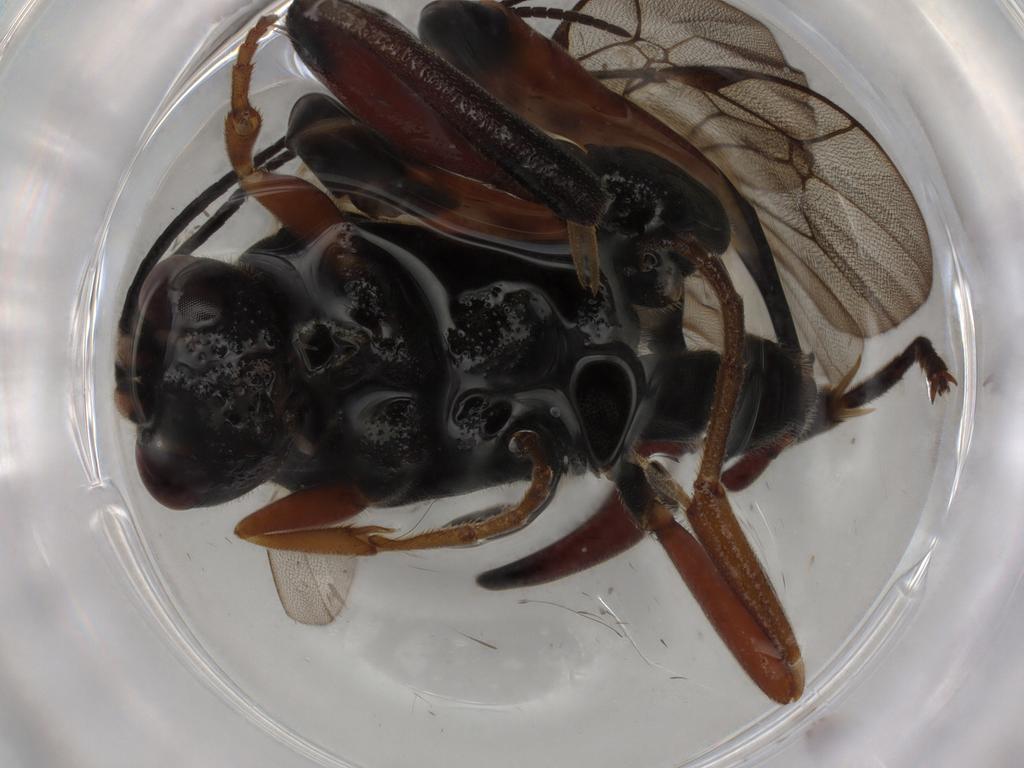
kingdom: Animalia
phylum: Arthropoda
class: Insecta
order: Hymenoptera
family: Ichneumonidae
